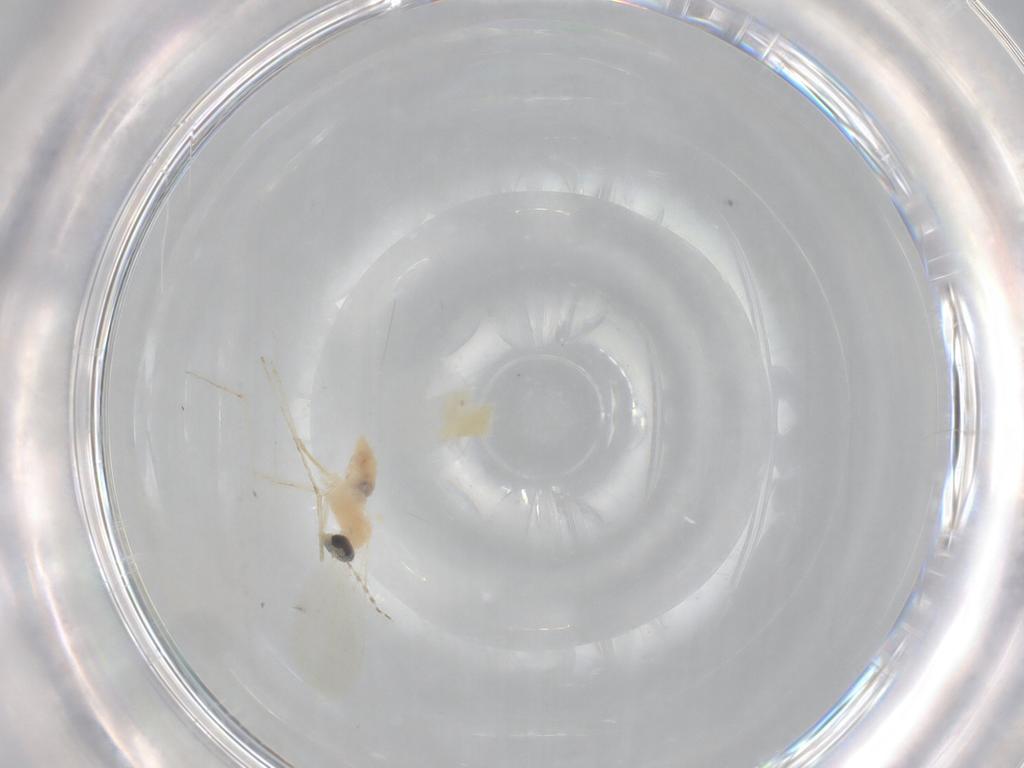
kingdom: Animalia
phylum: Arthropoda
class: Insecta
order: Diptera
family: Cecidomyiidae
